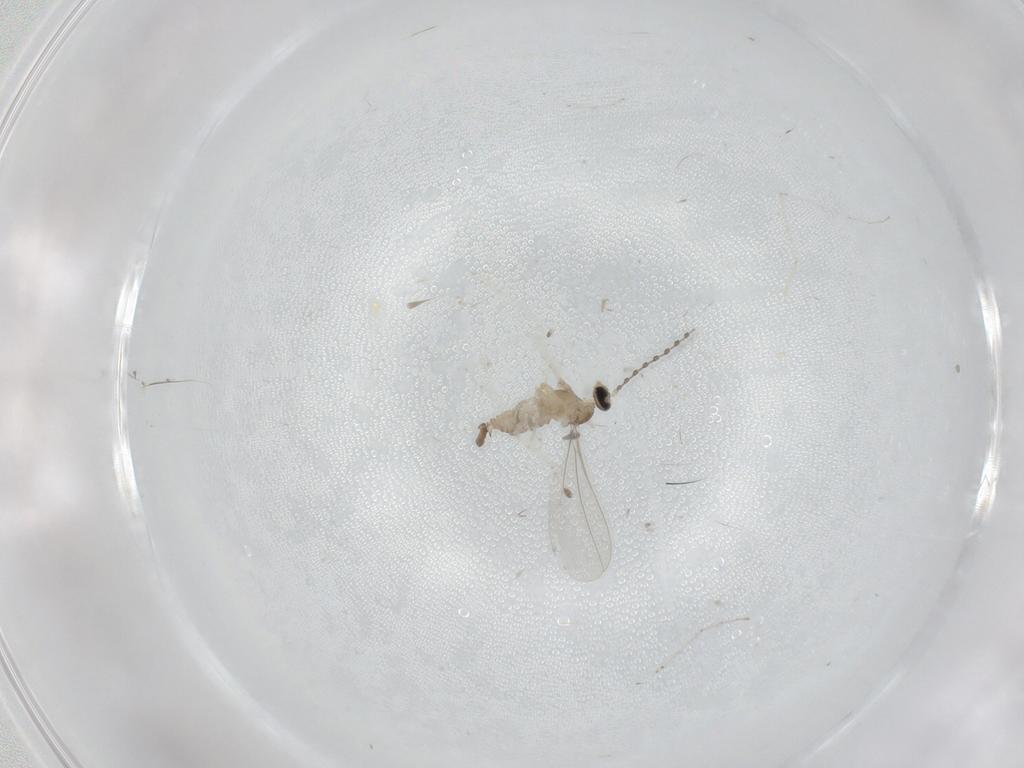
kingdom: Animalia
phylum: Arthropoda
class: Insecta
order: Diptera
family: Cecidomyiidae
